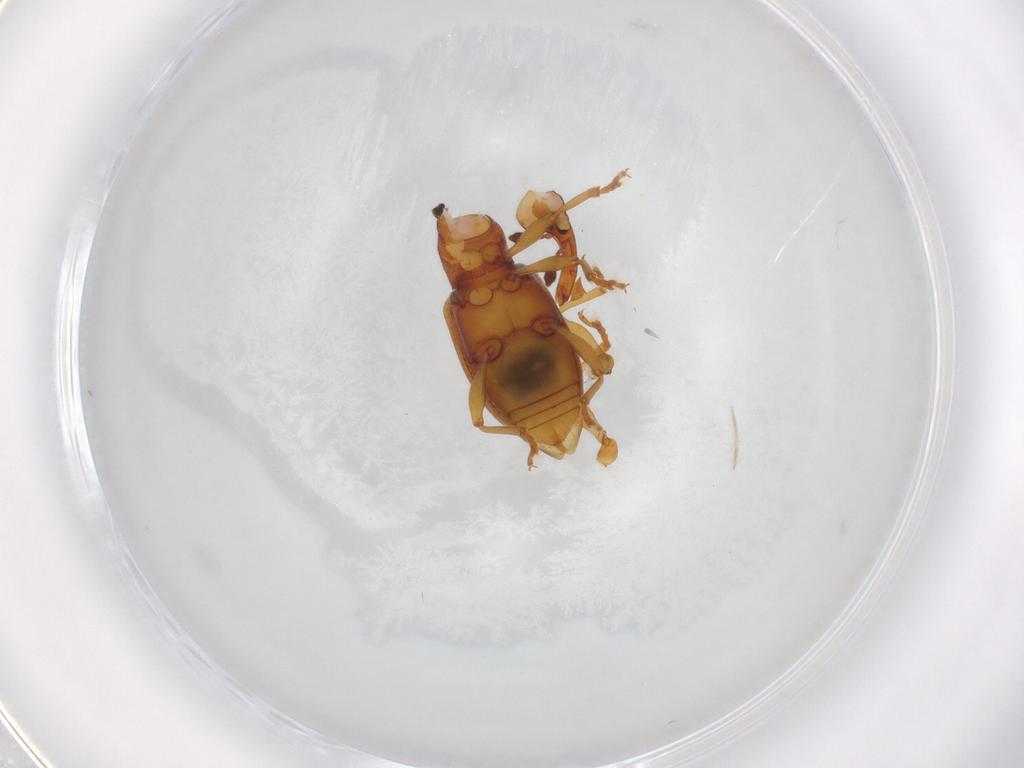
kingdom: Animalia
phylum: Arthropoda
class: Insecta
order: Coleoptera
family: Curculionidae
